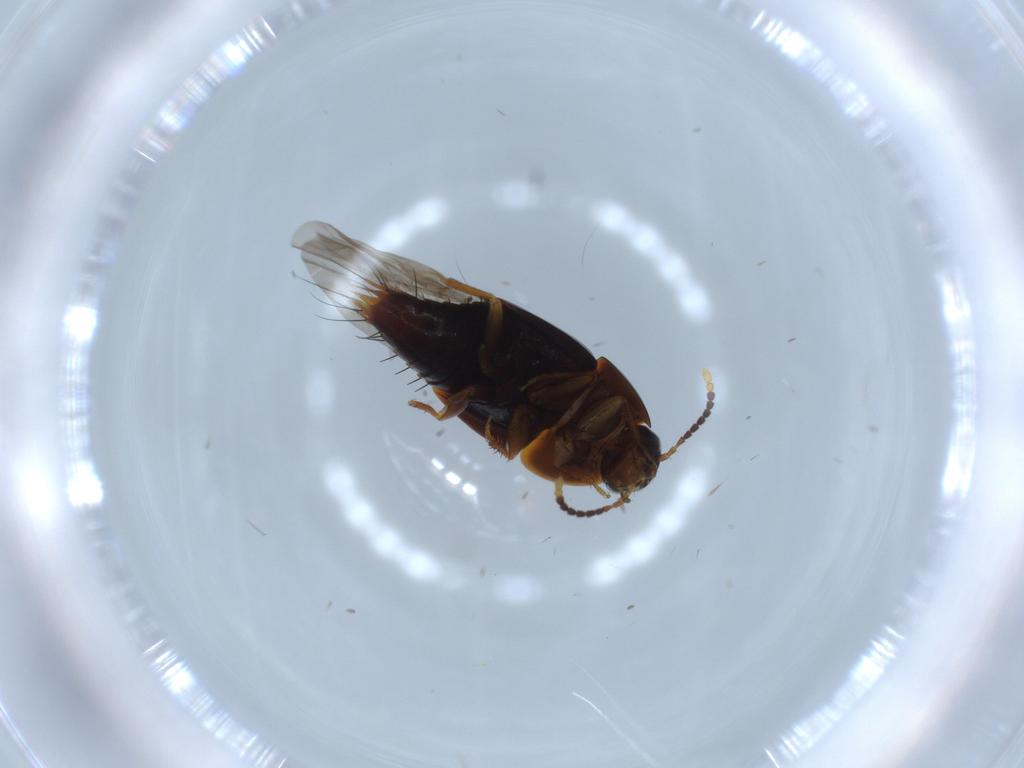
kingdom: Animalia
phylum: Arthropoda
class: Insecta
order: Coleoptera
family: Staphylinidae
